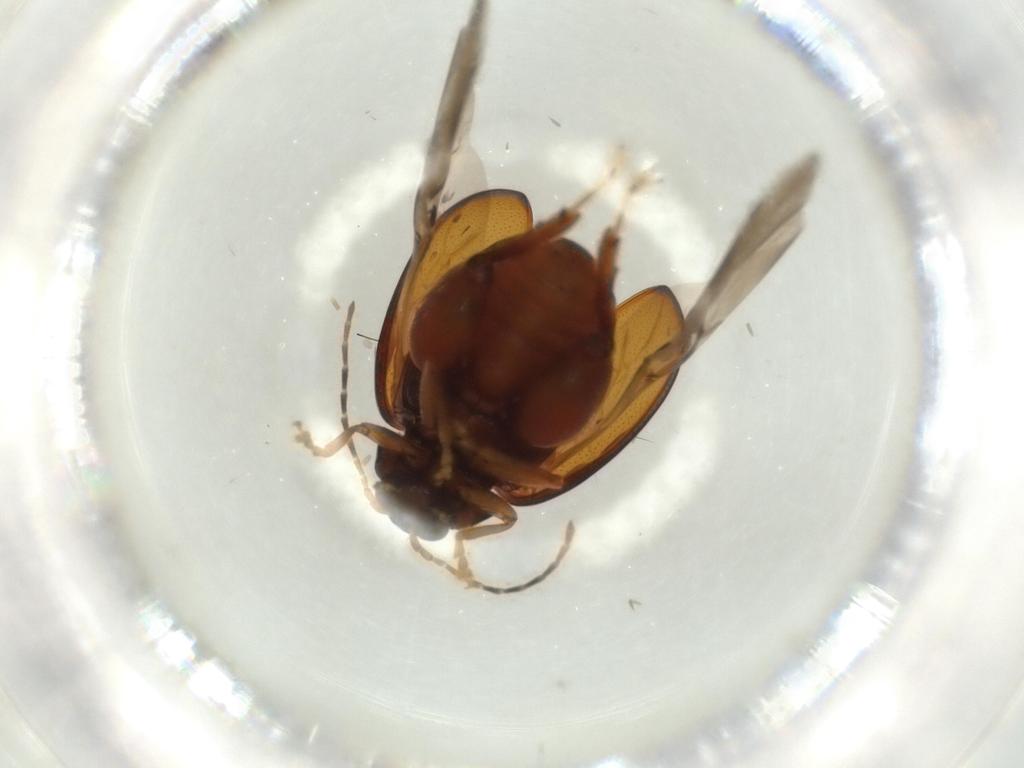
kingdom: Animalia
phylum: Arthropoda
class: Insecta
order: Coleoptera
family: Chrysomelidae
